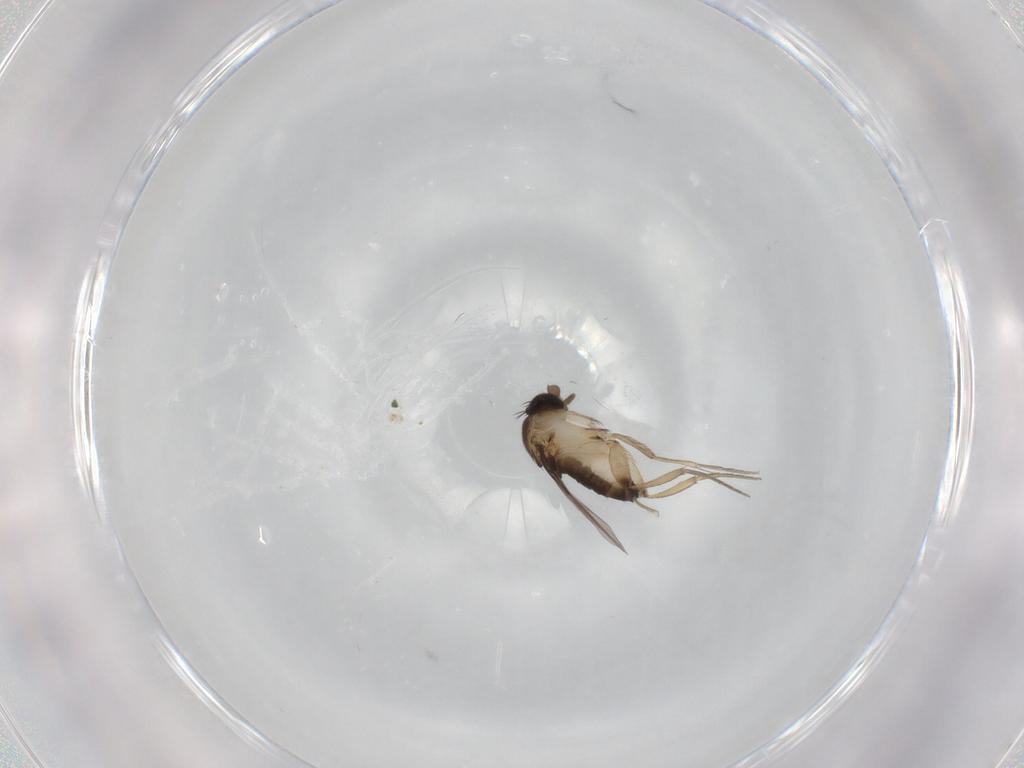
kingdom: Animalia
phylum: Arthropoda
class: Insecta
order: Diptera
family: Phoridae
